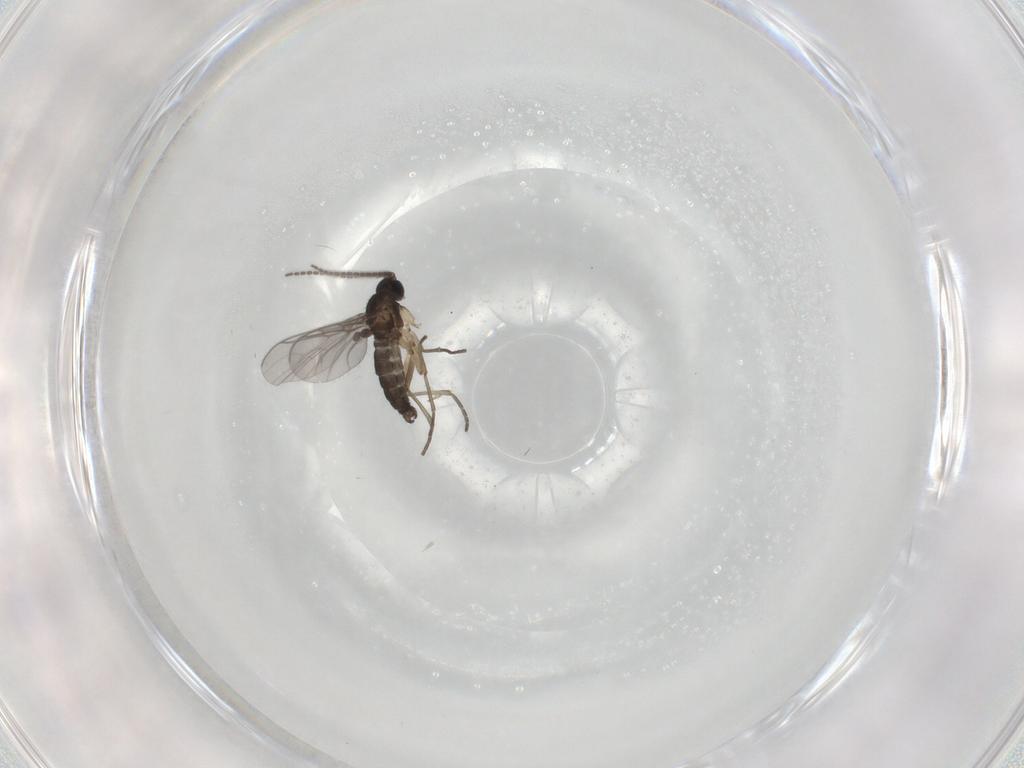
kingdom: Animalia
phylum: Arthropoda
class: Insecta
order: Diptera
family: Sciaridae
